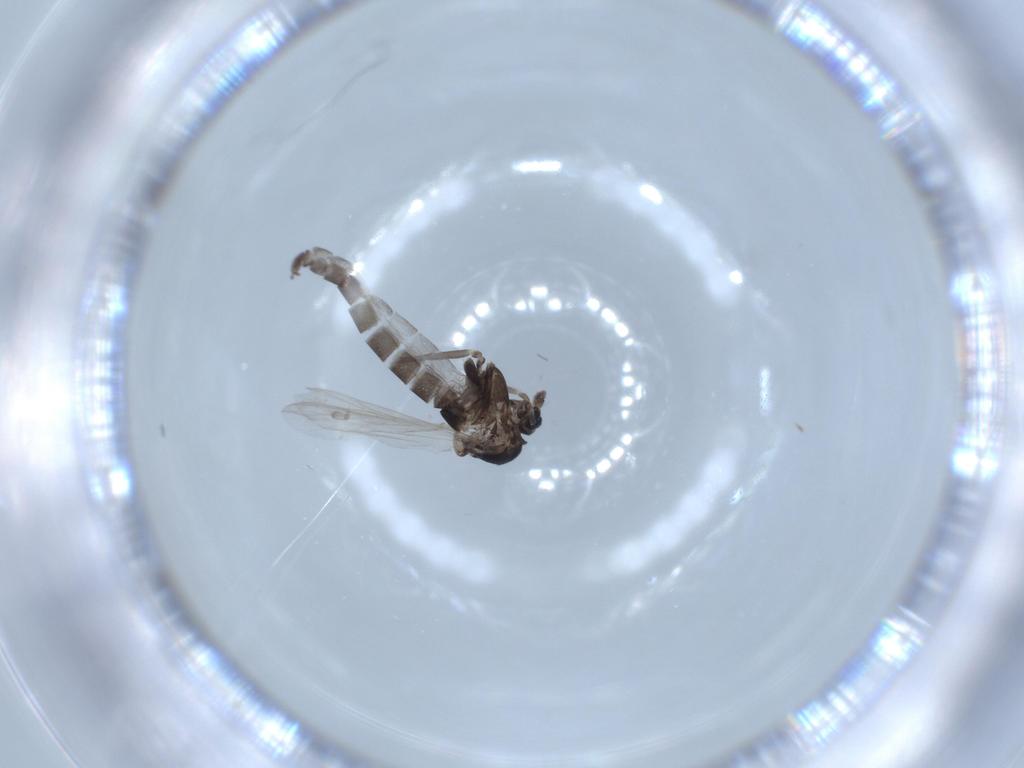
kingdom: Animalia
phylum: Arthropoda
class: Insecta
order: Diptera
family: Chironomidae
